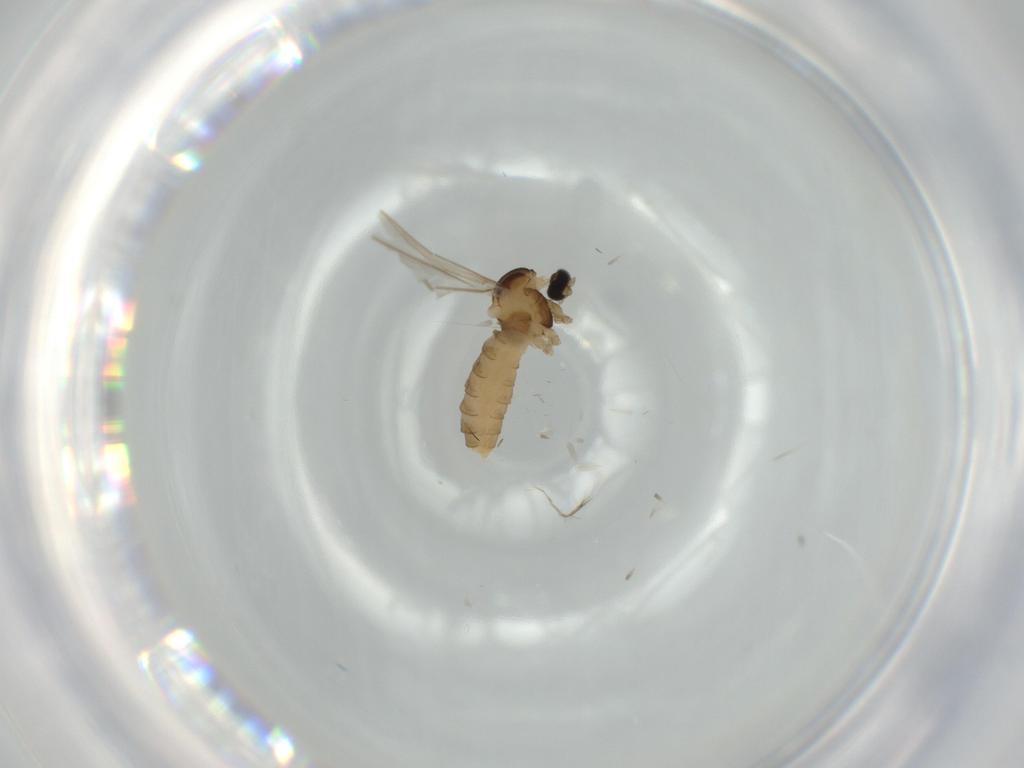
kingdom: Animalia
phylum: Arthropoda
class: Insecta
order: Diptera
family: Cecidomyiidae
